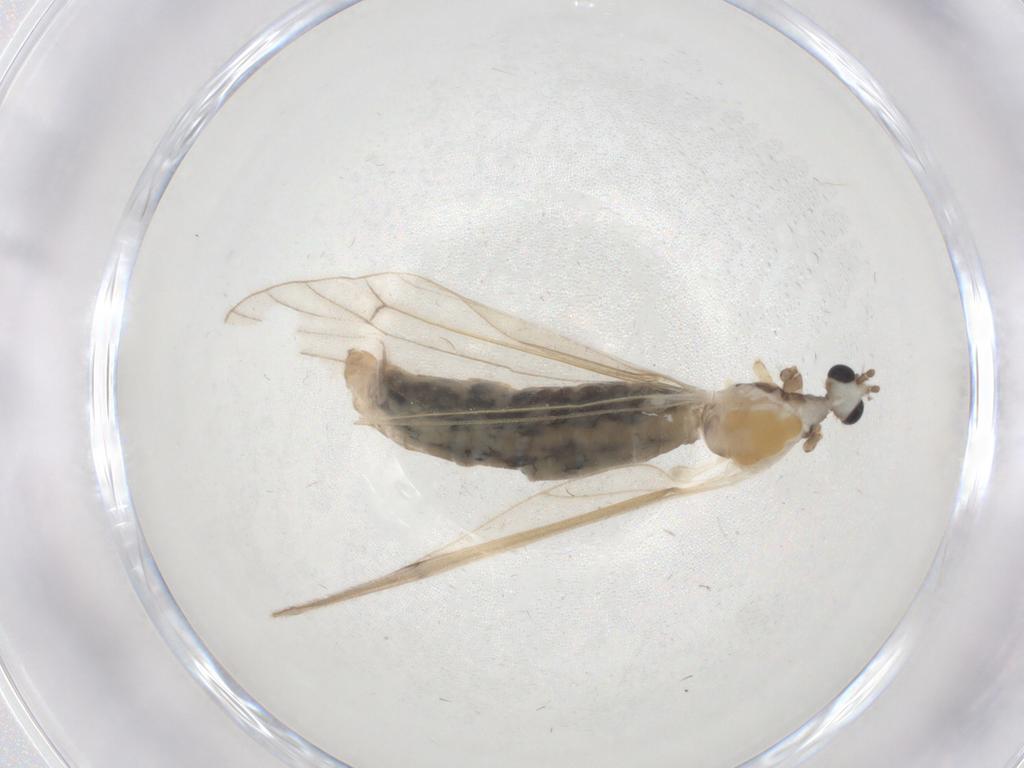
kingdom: Animalia
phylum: Arthropoda
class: Insecta
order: Diptera
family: Limoniidae
